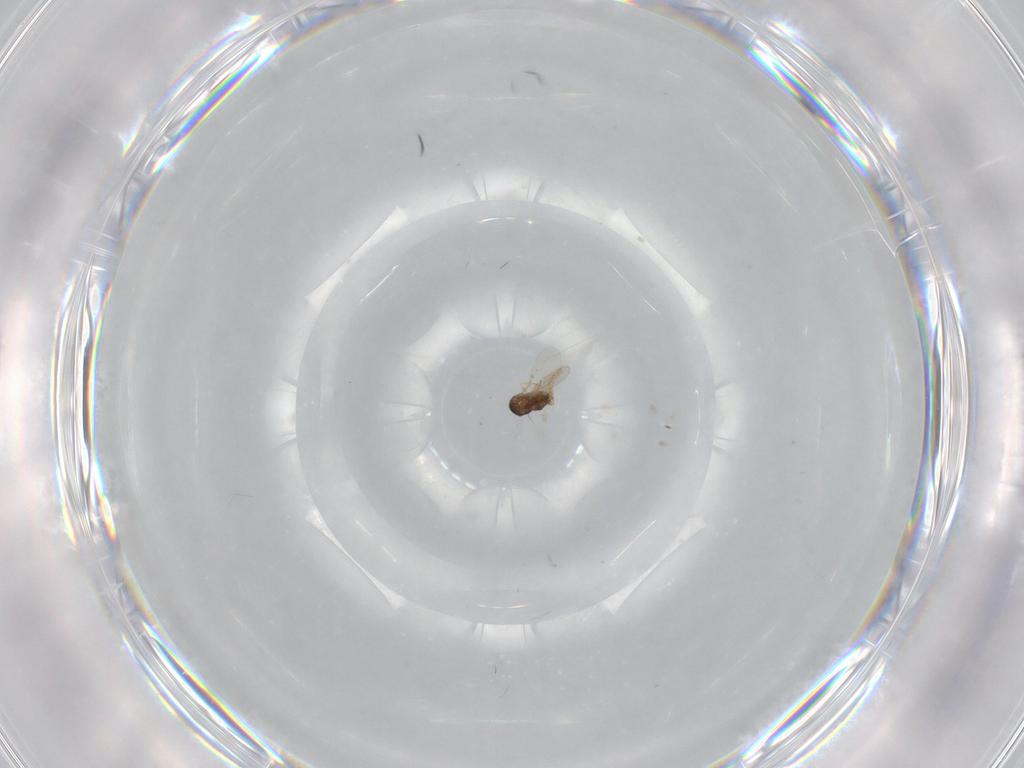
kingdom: Animalia
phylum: Arthropoda
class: Insecta
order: Hymenoptera
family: Encyrtidae
